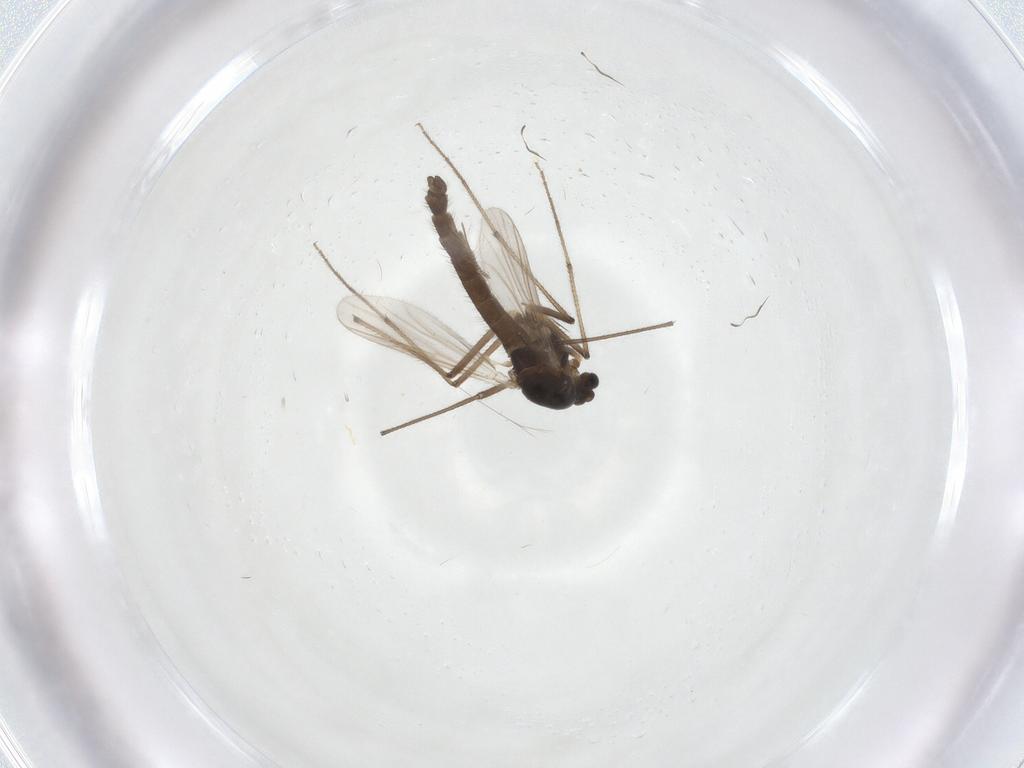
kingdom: Animalia
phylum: Arthropoda
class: Insecta
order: Diptera
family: Chironomidae
